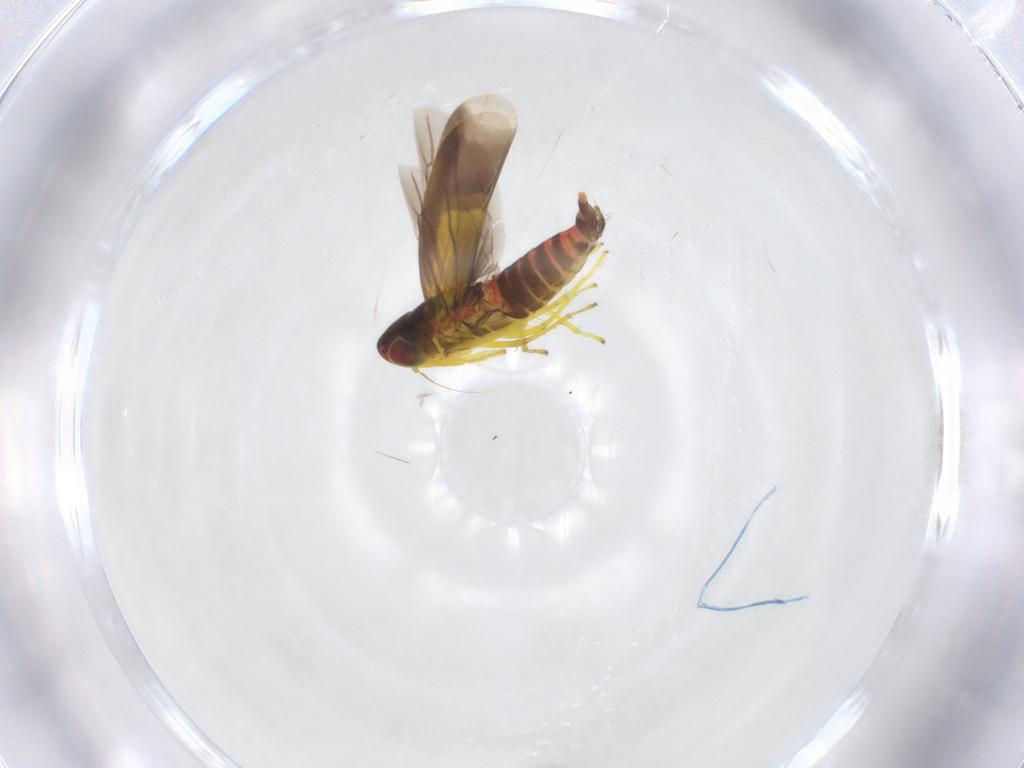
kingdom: Animalia
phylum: Arthropoda
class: Insecta
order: Hemiptera
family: Cicadellidae
